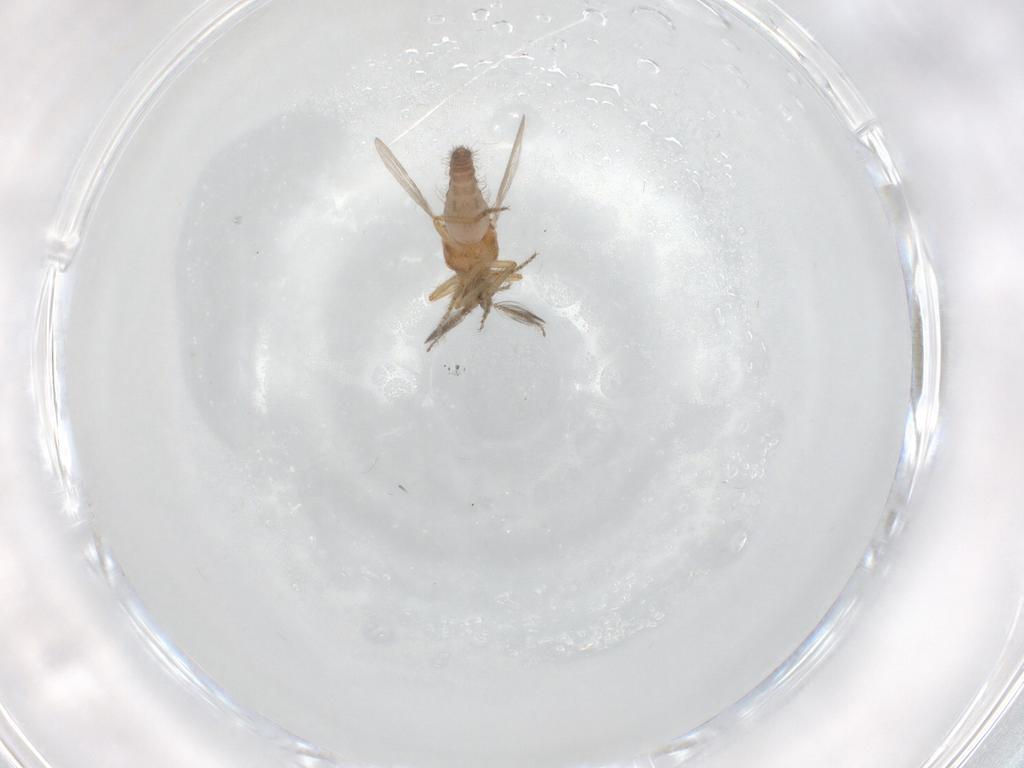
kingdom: Animalia
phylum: Arthropoda
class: Insecta
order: Diptera
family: Ceratopogonidae
